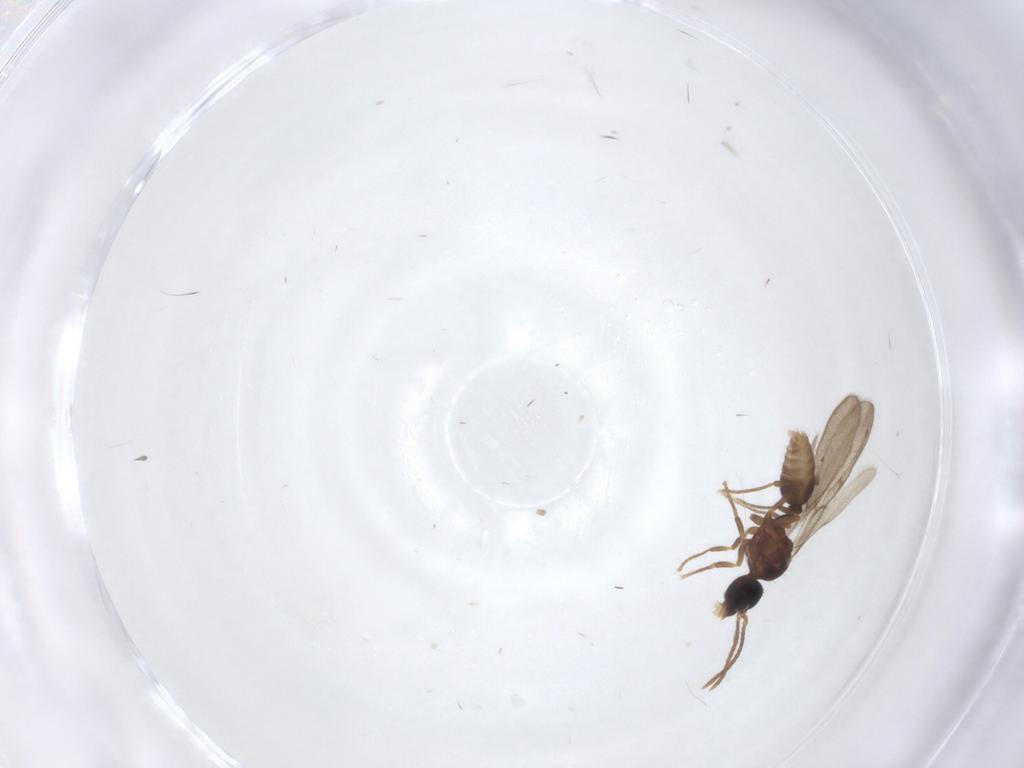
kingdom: Animalia
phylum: Arthropoda
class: Insecta
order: Hymenoptera
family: Formicidae
